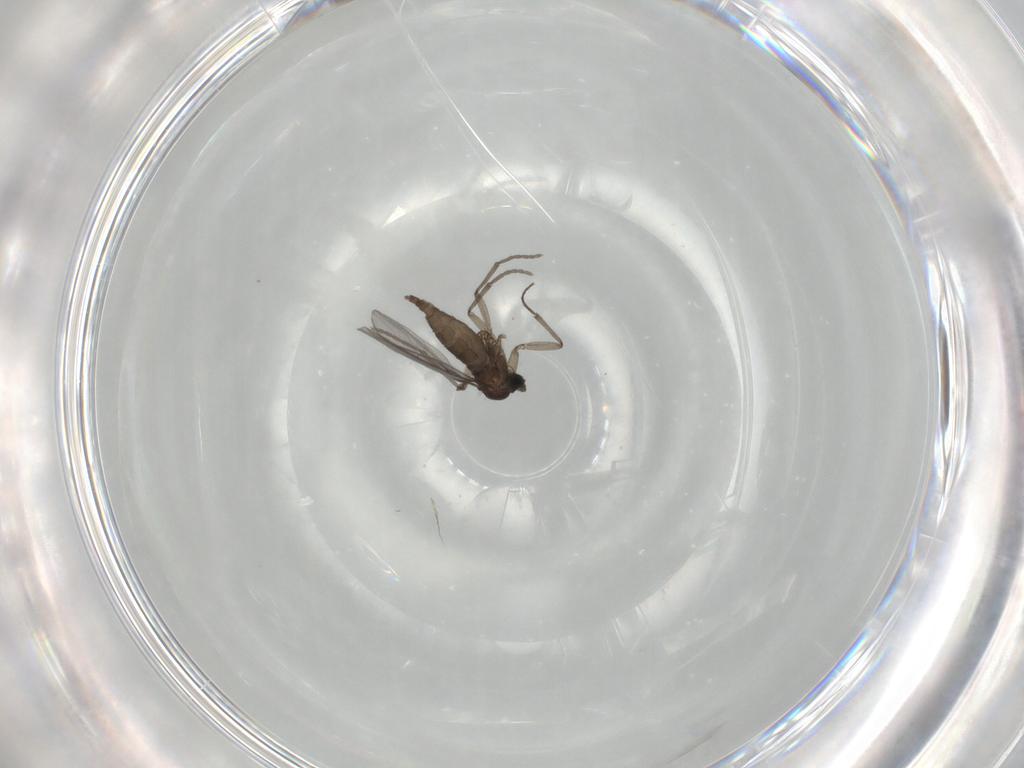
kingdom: Animalia
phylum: Arthropoda
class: Insecta
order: Diptera
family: Sciaridae
